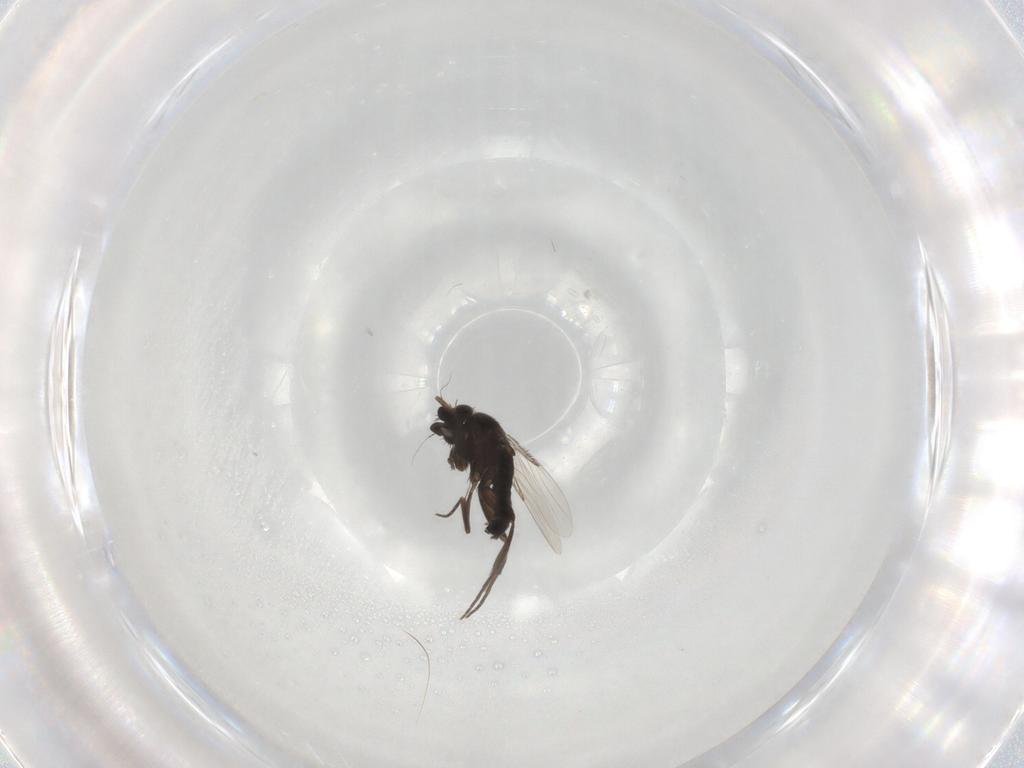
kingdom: Animalia
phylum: Arthropoda
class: Insecta
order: Diptera
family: Phoridae
